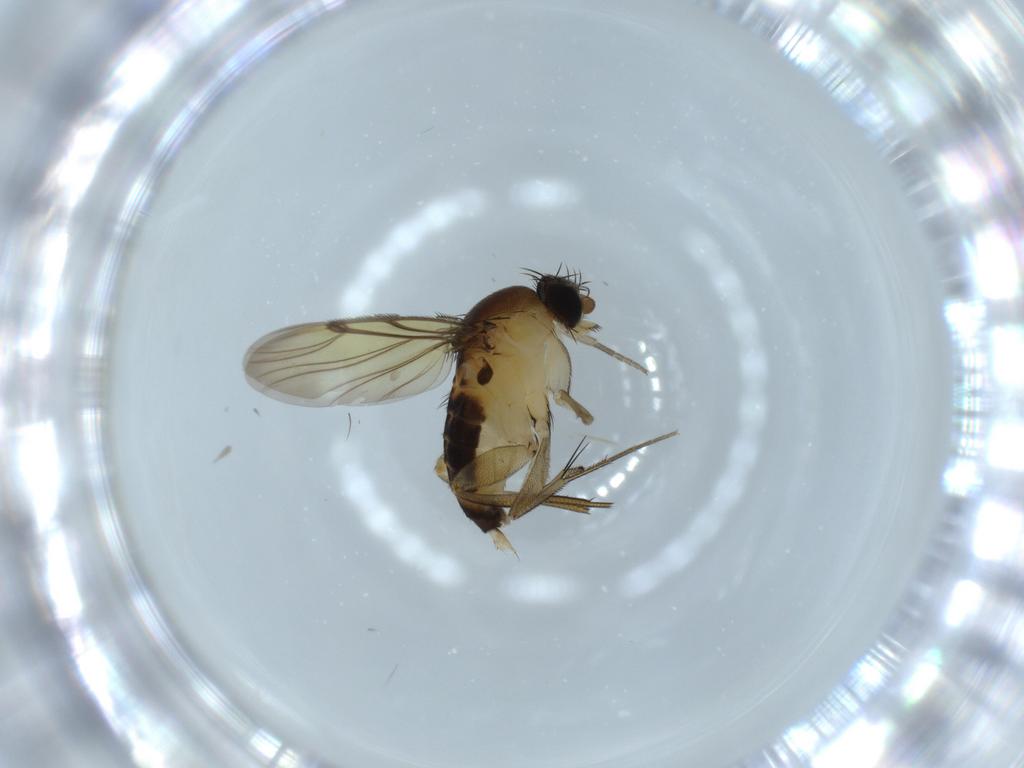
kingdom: Animalia
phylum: Arthropoda
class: Insecta
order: Diptera
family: Phoridae
